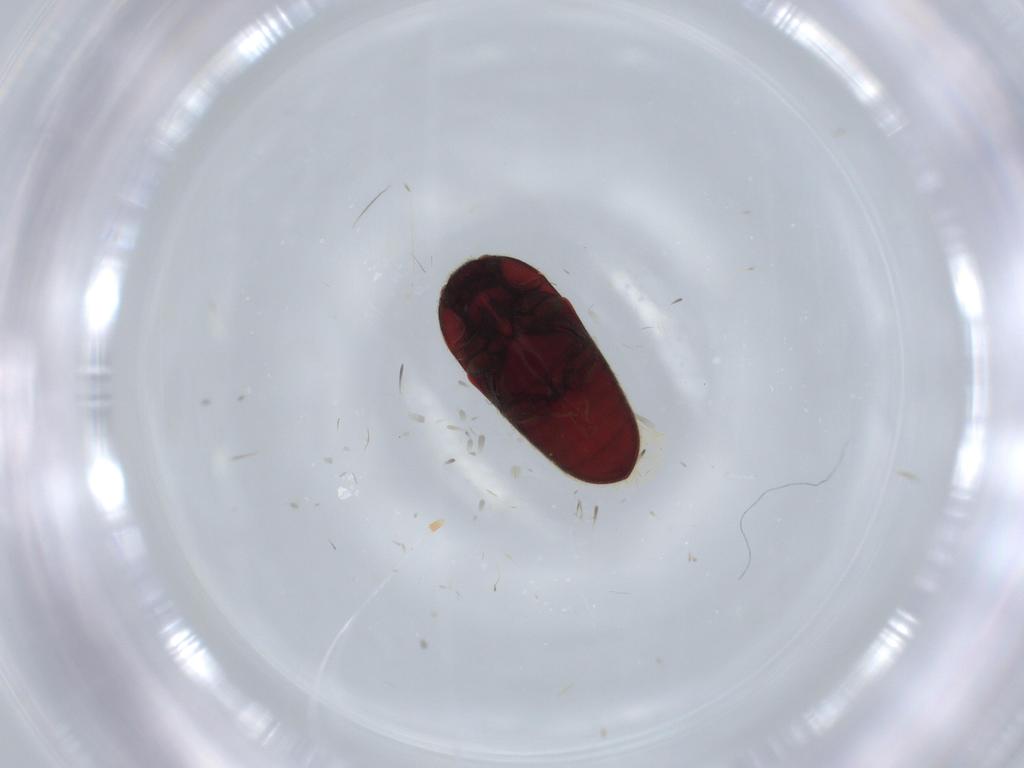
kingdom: Animalia
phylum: Arthropoda
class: Insecta
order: Coleoptera
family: Throscidae
